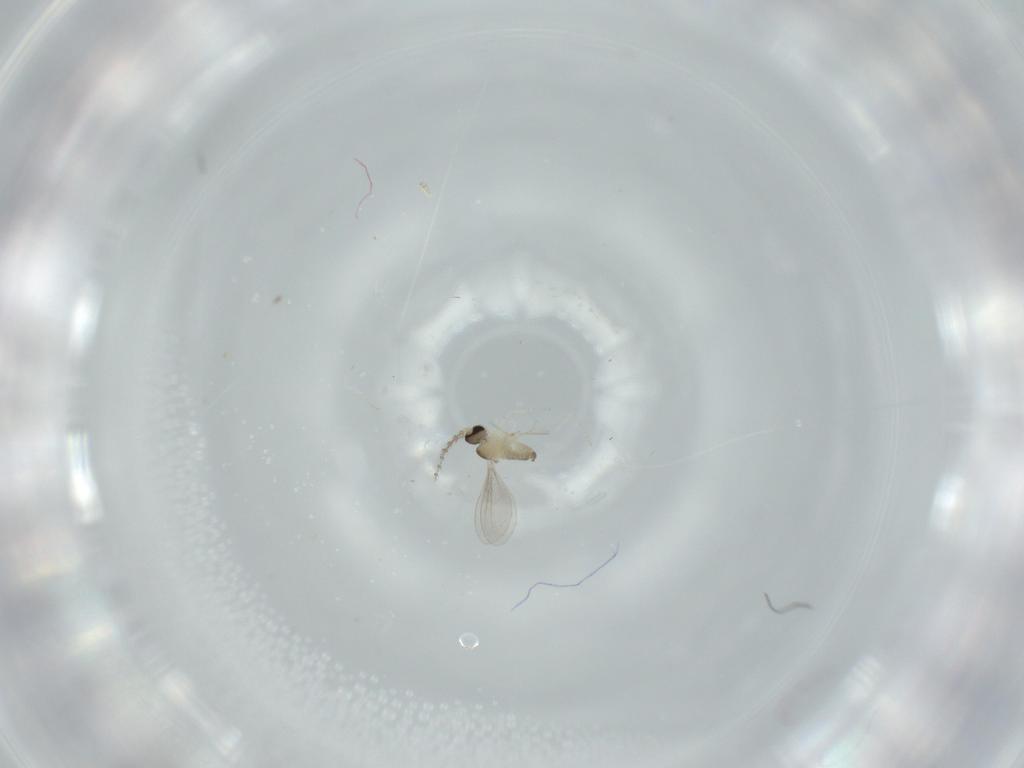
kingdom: Animalia
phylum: Arthropoda
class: Insecta
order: Diptera
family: Cecidomyiidae
